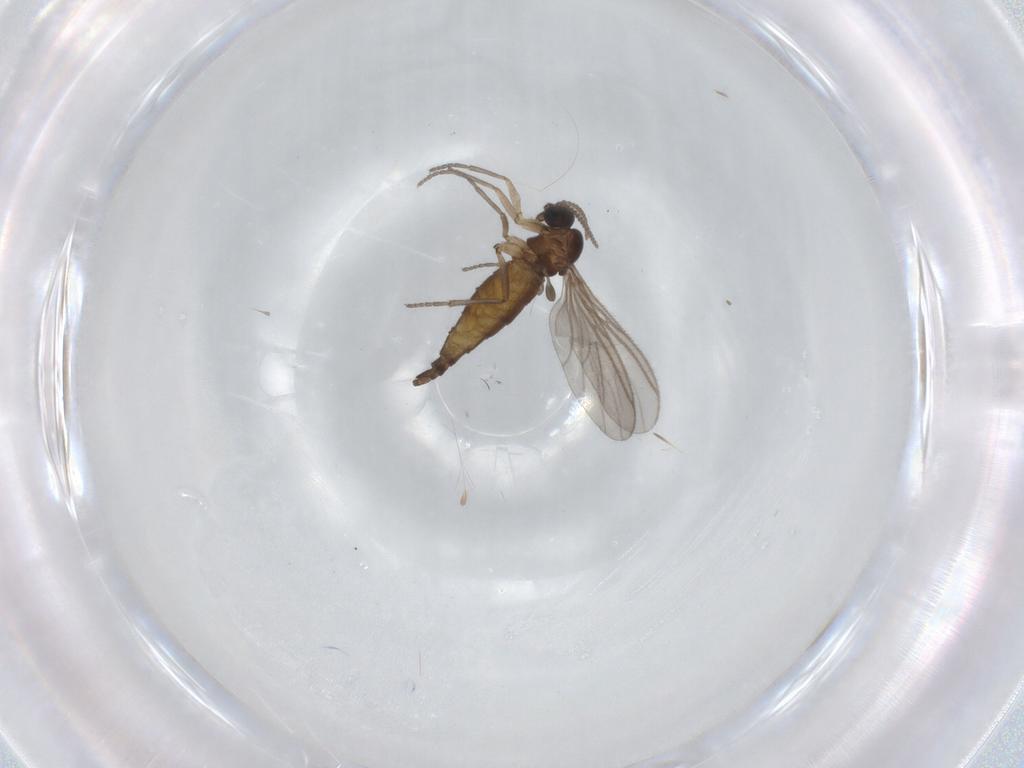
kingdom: Animalia
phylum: Arthropoda
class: Insecta
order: Diptera
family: Sciaridae
